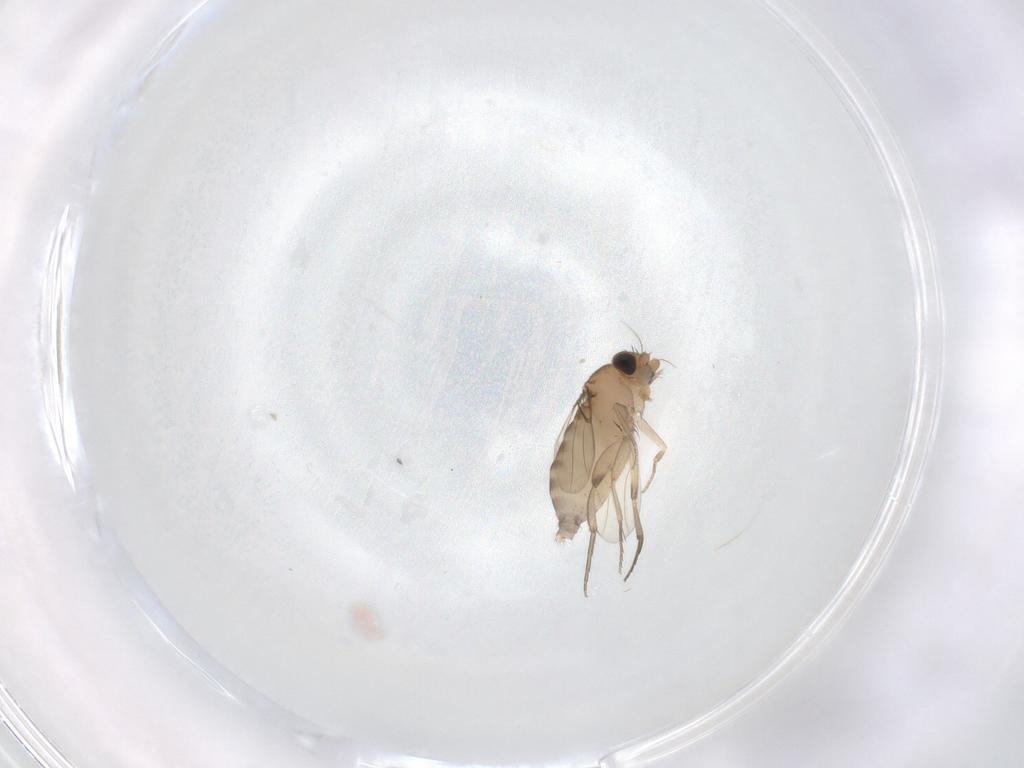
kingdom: Animalia
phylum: Arthropoda
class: Insecta
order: Diptera
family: Phoridae
